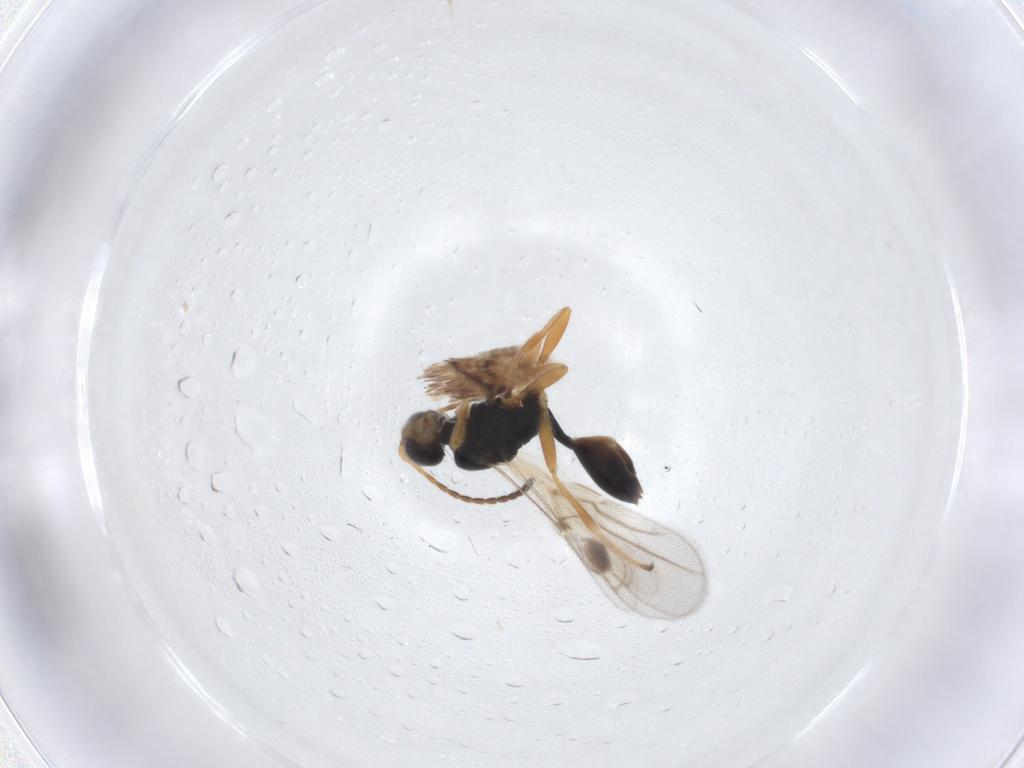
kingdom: Animalia
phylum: Arthropoda
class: Insecta
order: Hymenoptera
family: Braconidae
